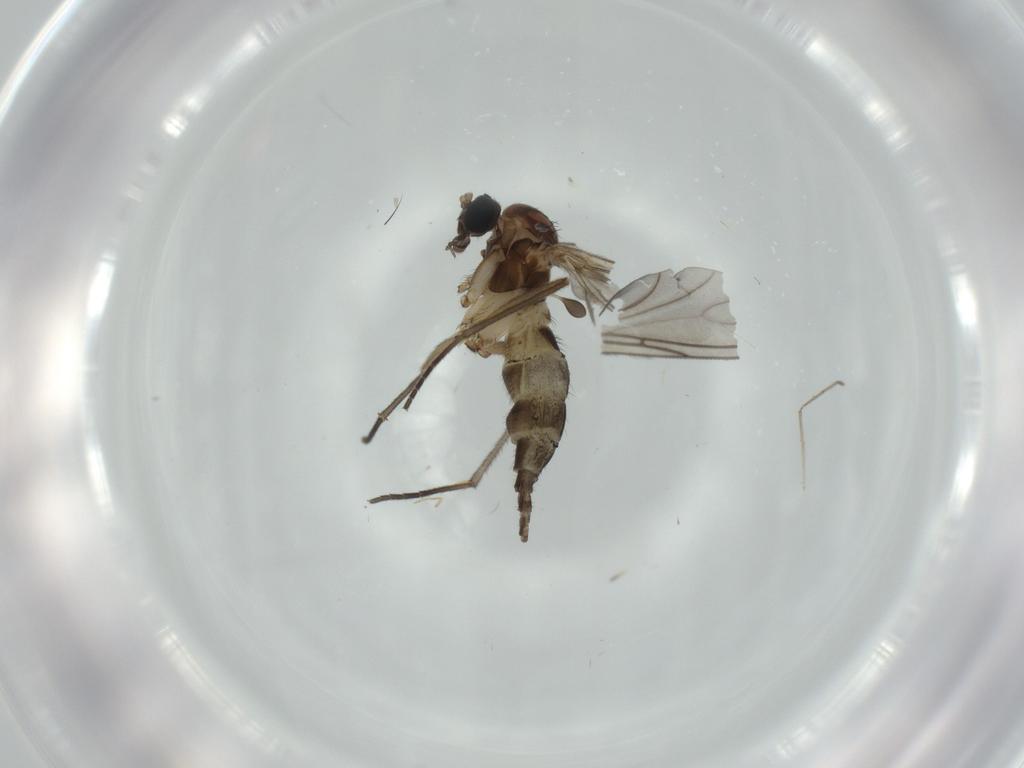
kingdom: Animalia
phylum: Arthropoda
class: Insecta
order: Diptera
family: Sciaridae
